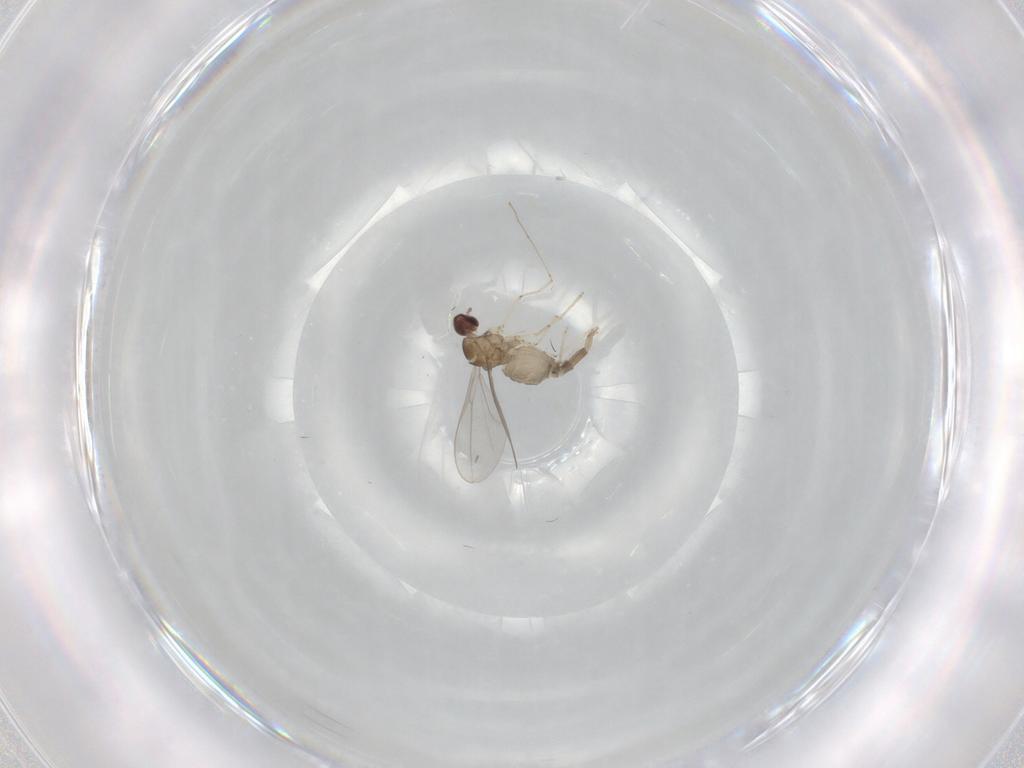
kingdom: Animalia
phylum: Arthropoda
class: Insecta
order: Diptera
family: Cecidomyiidae
